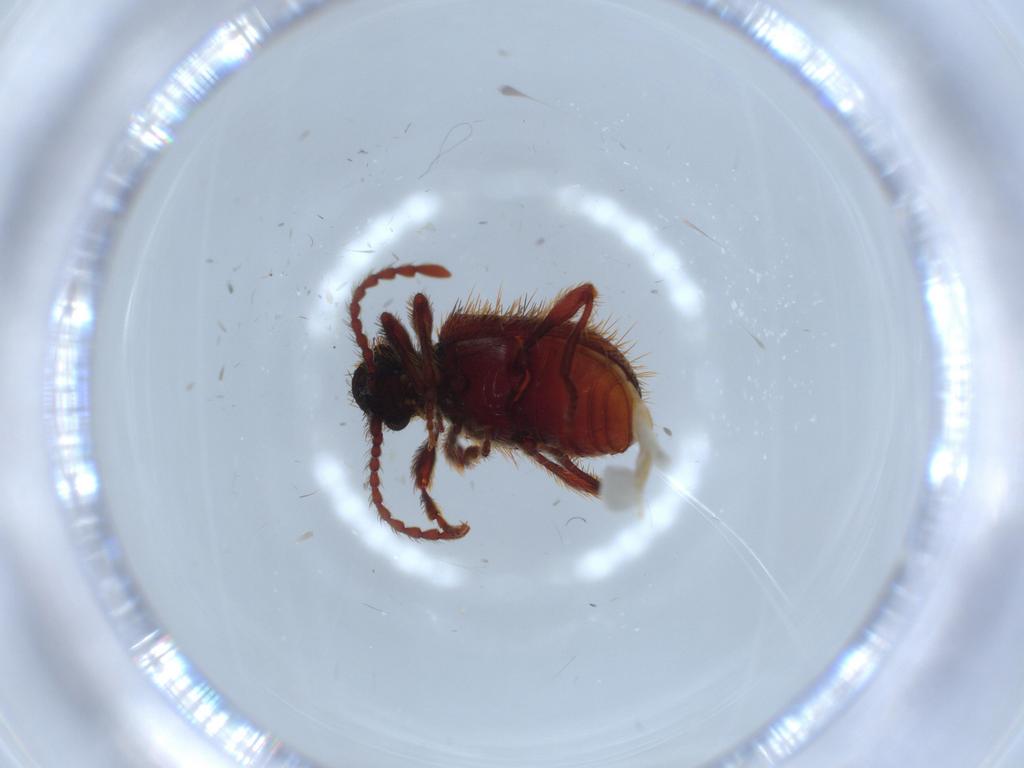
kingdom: Animalia
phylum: Arthropoda
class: Insecta
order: Coleoptera
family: Ptinidae
